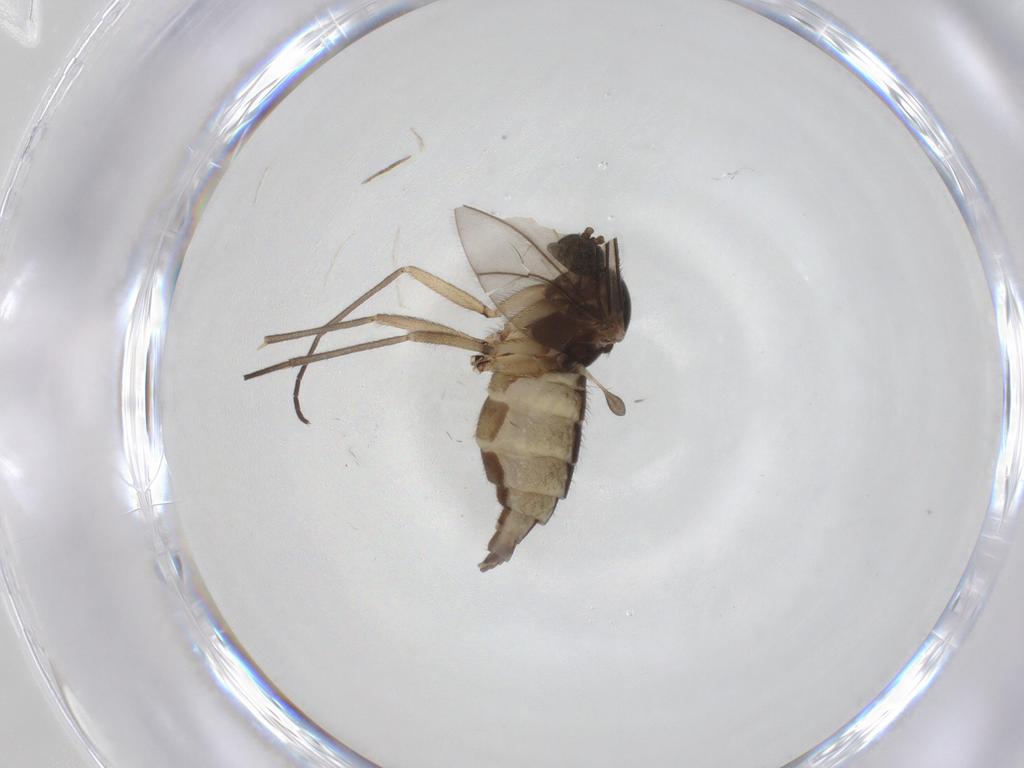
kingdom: Animalia
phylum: Arthropoda
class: Insecta
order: Diptera
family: Sciaridae
